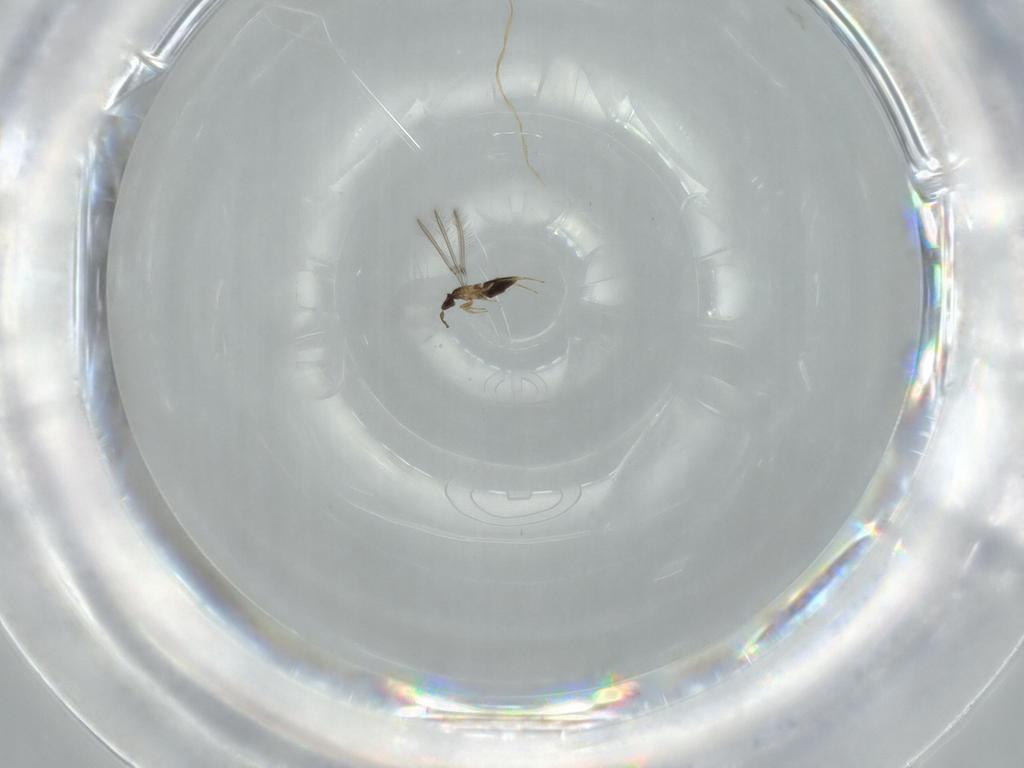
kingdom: Animalia
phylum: Arthropoda
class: Insecta
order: Hymenoptera
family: Mymaridae
